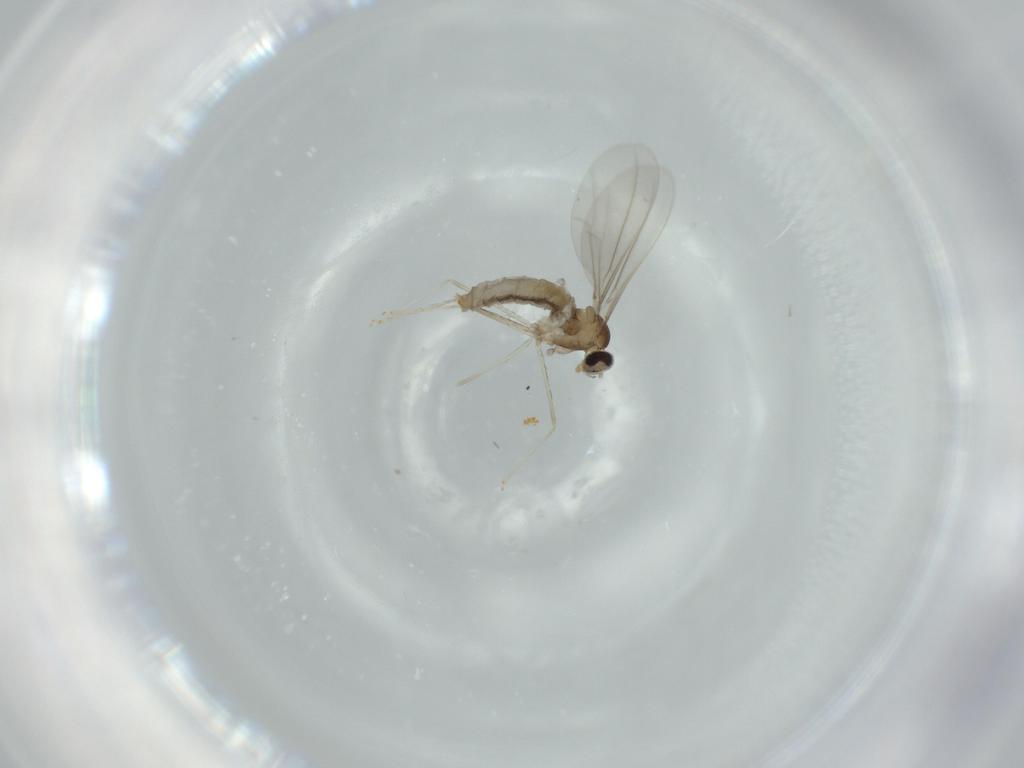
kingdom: Animalia
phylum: Arthropoda
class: Insecta
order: Diptera
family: Cecidomyiidae
